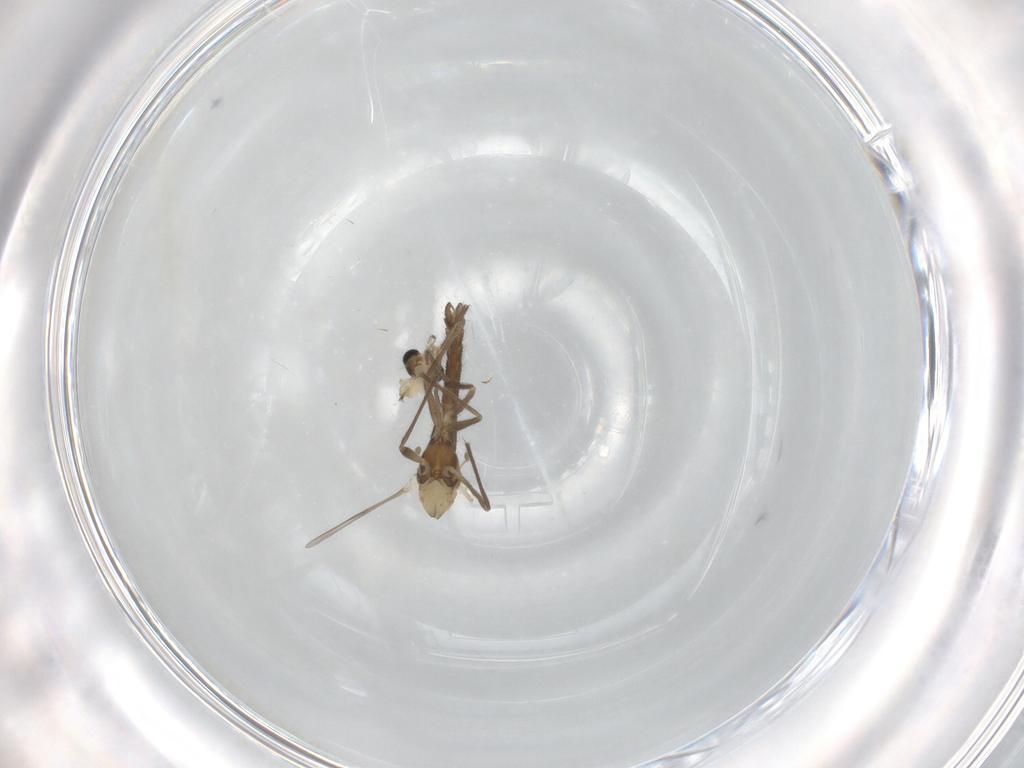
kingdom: Animalia
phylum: Arthropoda
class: Insecta
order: Diptera
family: Chironomidae
